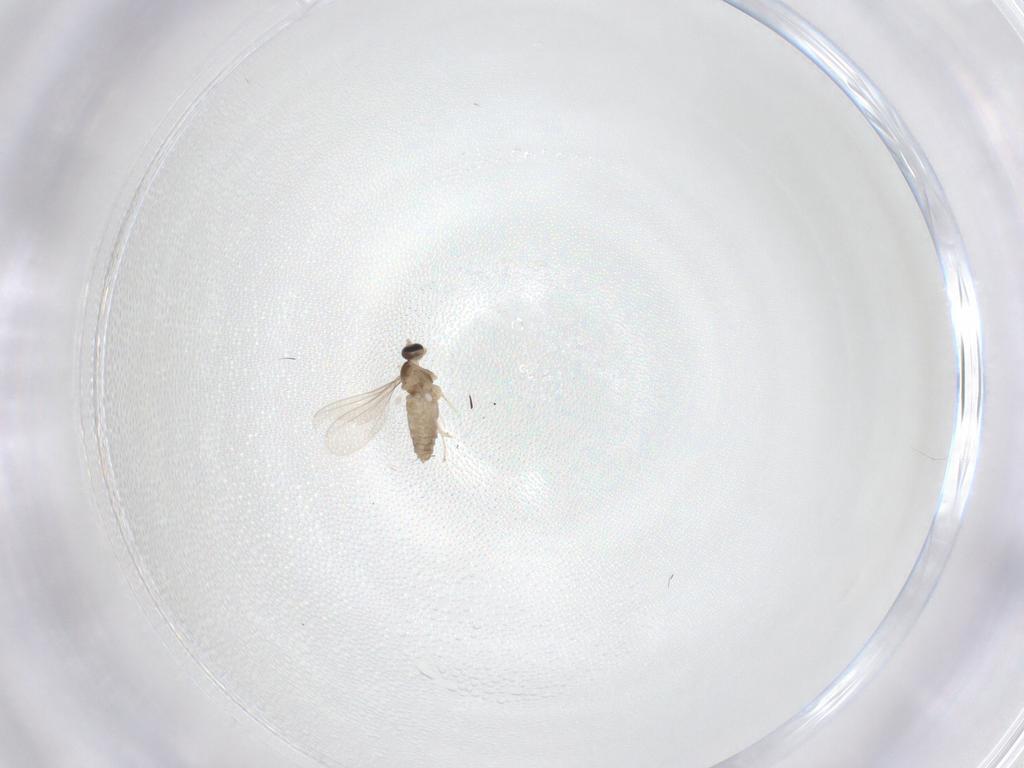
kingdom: Animalia
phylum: Arthropoda
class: Insecta
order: Diptera
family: Cecidomyiidae
